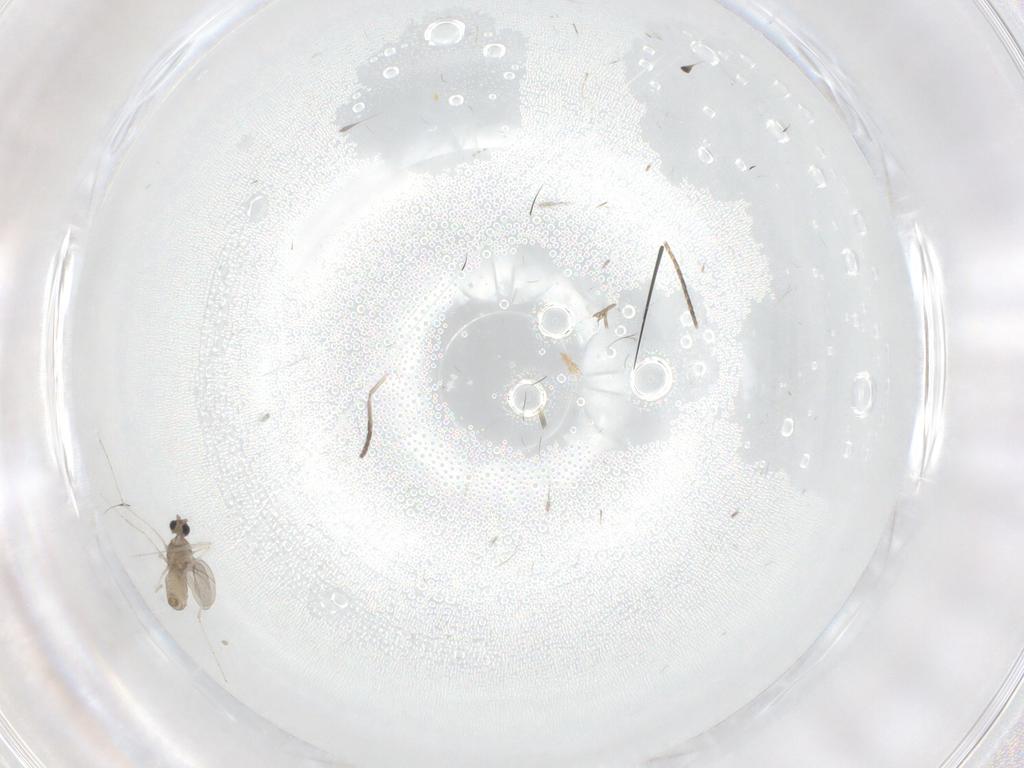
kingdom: Animalia
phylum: Arthropoda
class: Insecta
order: Diptera
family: Cecidomyiidae
